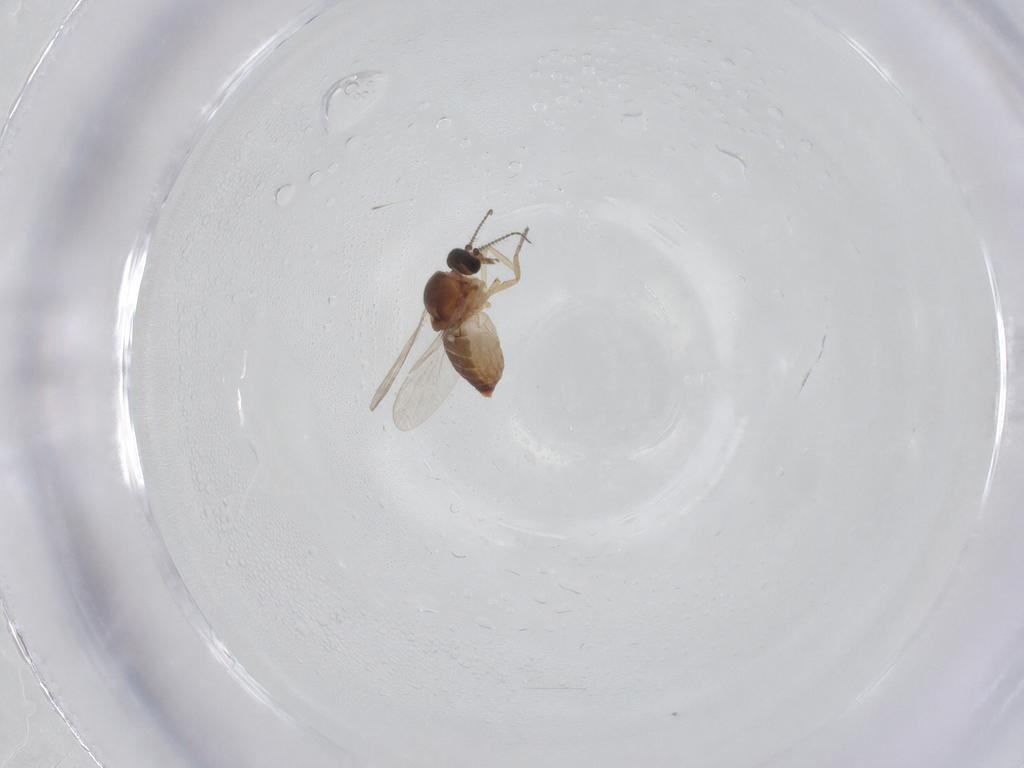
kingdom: Animalia
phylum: Arthropoda
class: Insecta
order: Diptera
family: Ceratopogonidae
